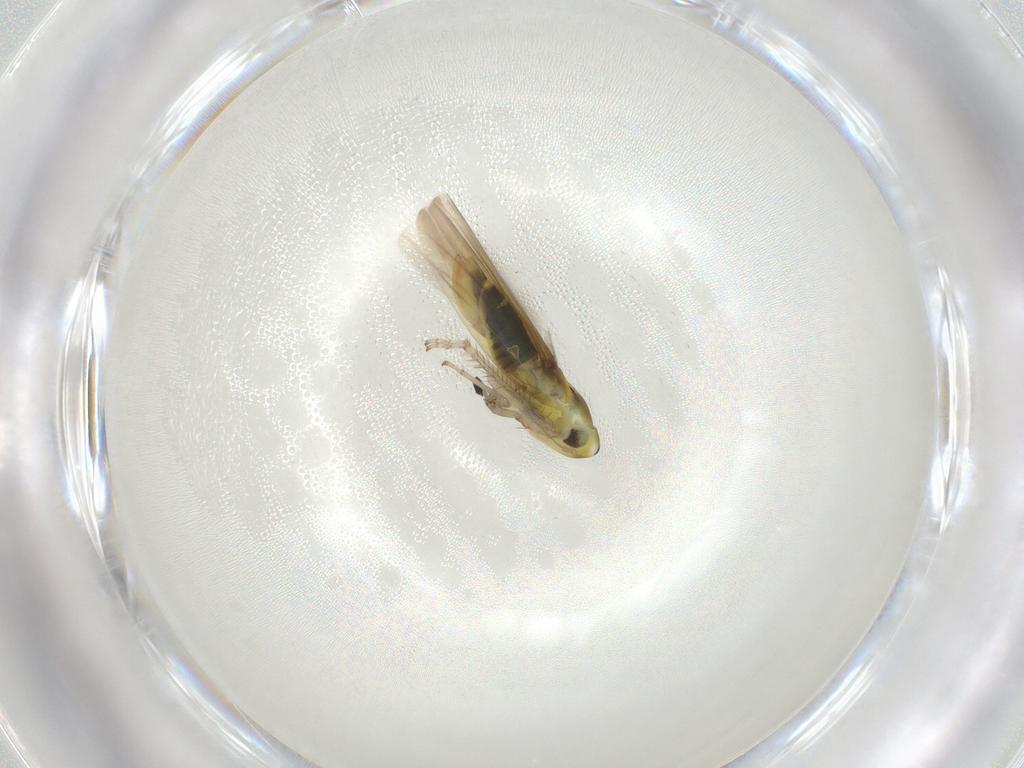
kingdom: Animalia
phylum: Arthropoda
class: Insecta
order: Hemiptera
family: Cicadellidae
